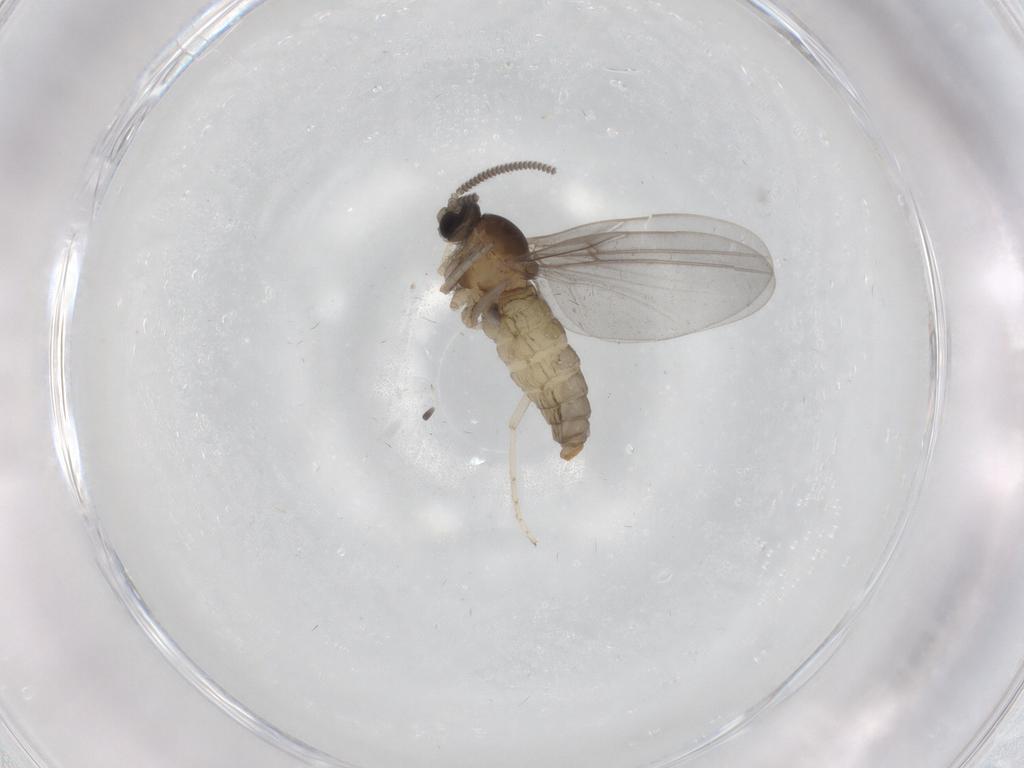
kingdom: Animalia
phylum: Arthropoda
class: Insecta
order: Diptera
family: Cecidomyiidae
